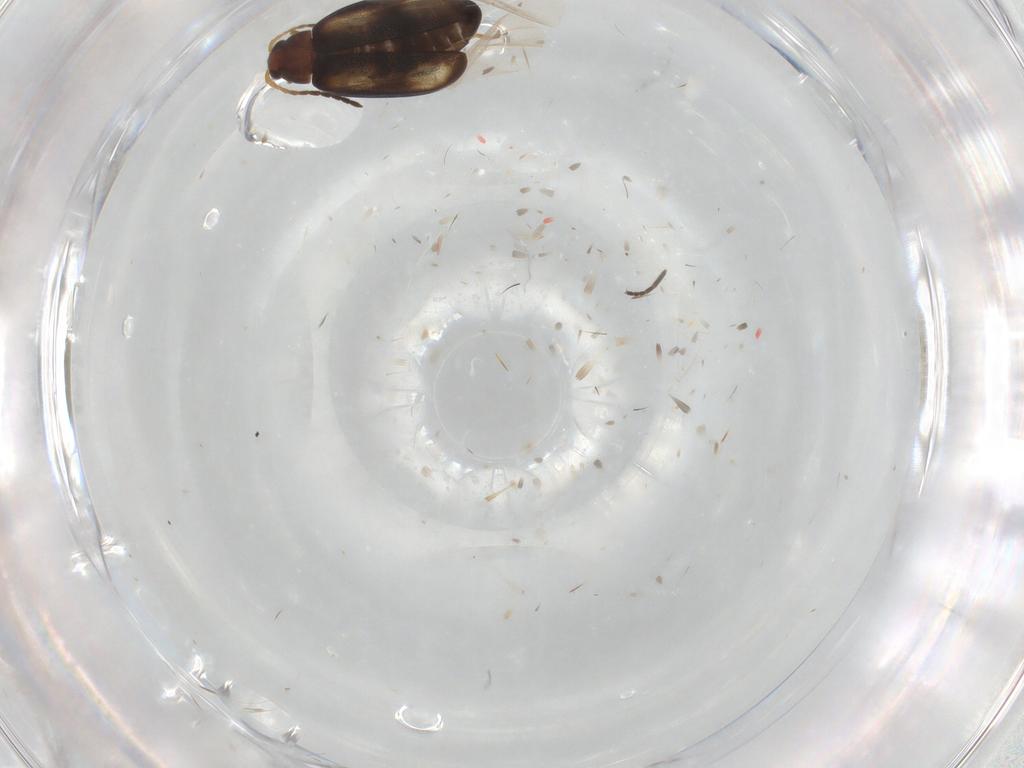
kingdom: Animalia
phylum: Arthropoda
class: Insecta
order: Coleoptera
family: Chrysomelidae
